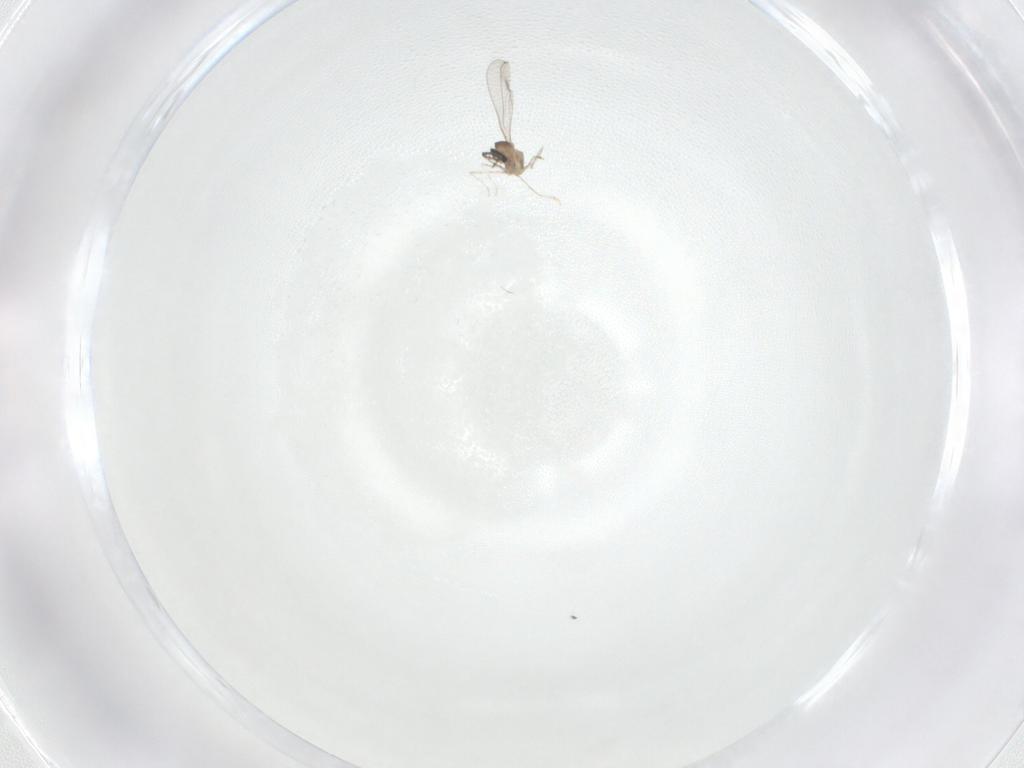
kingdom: Animalia
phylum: Arthropoda
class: Insecta
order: Diptera
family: Cecidomyiidae
